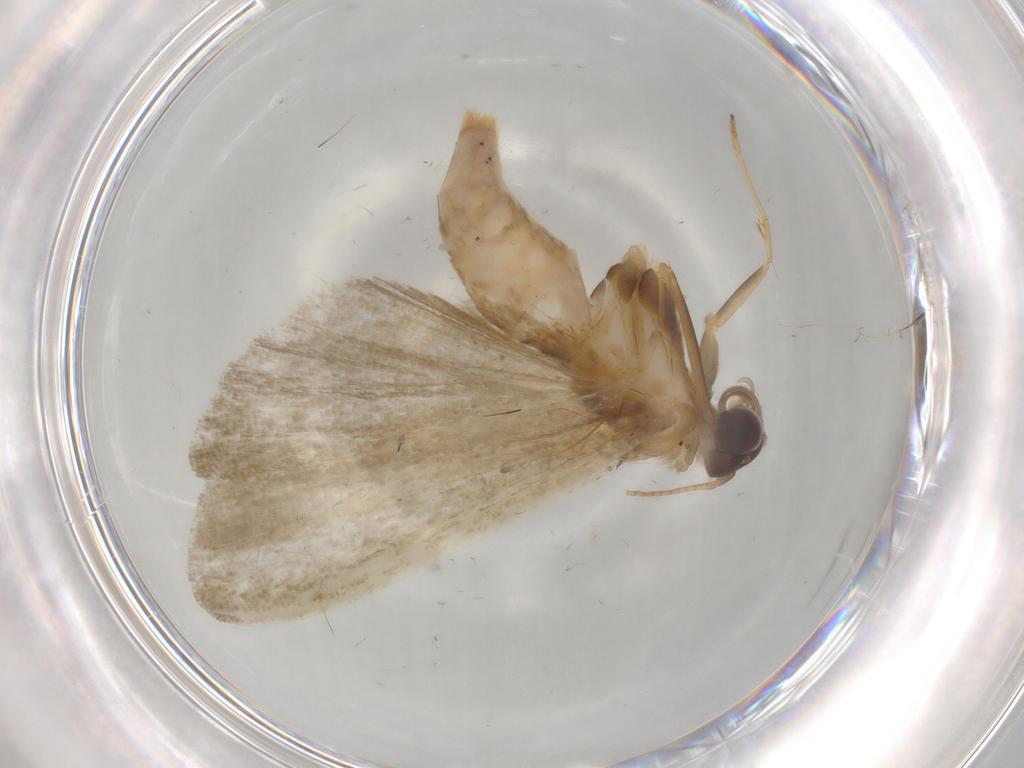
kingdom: Animalia
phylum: Arthropoda
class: Insecta
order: Lepidoptera
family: Noctuidae
